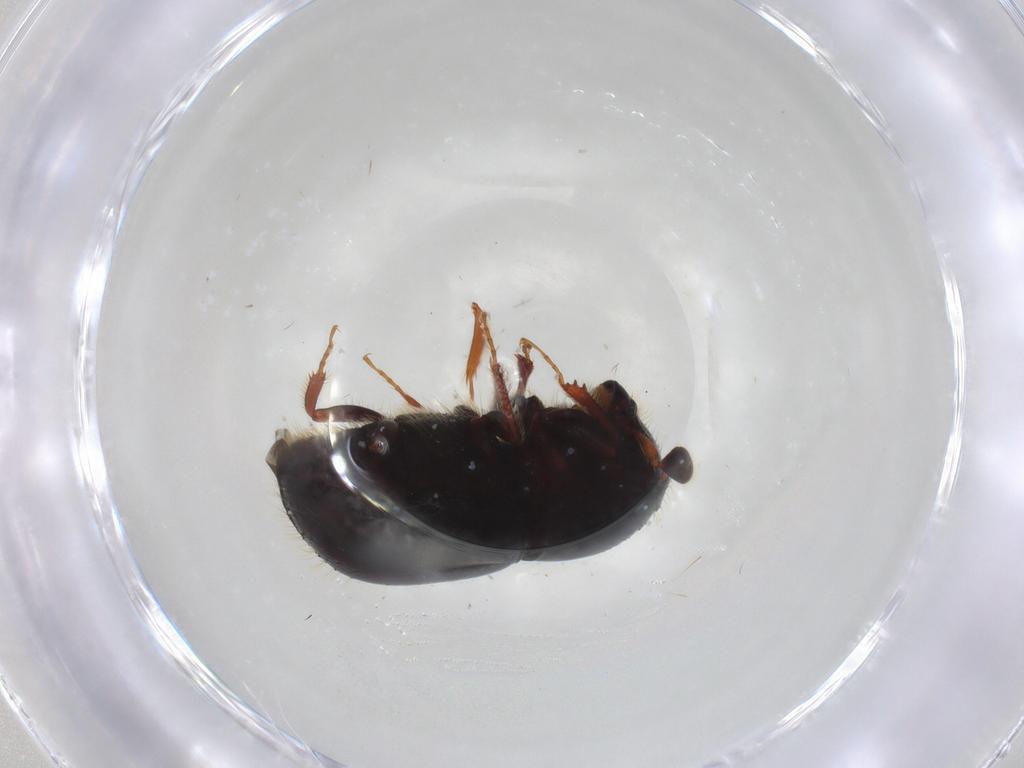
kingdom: Animalia
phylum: Arthropoda
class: Insecta
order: Coleoptera
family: Curculionidae
